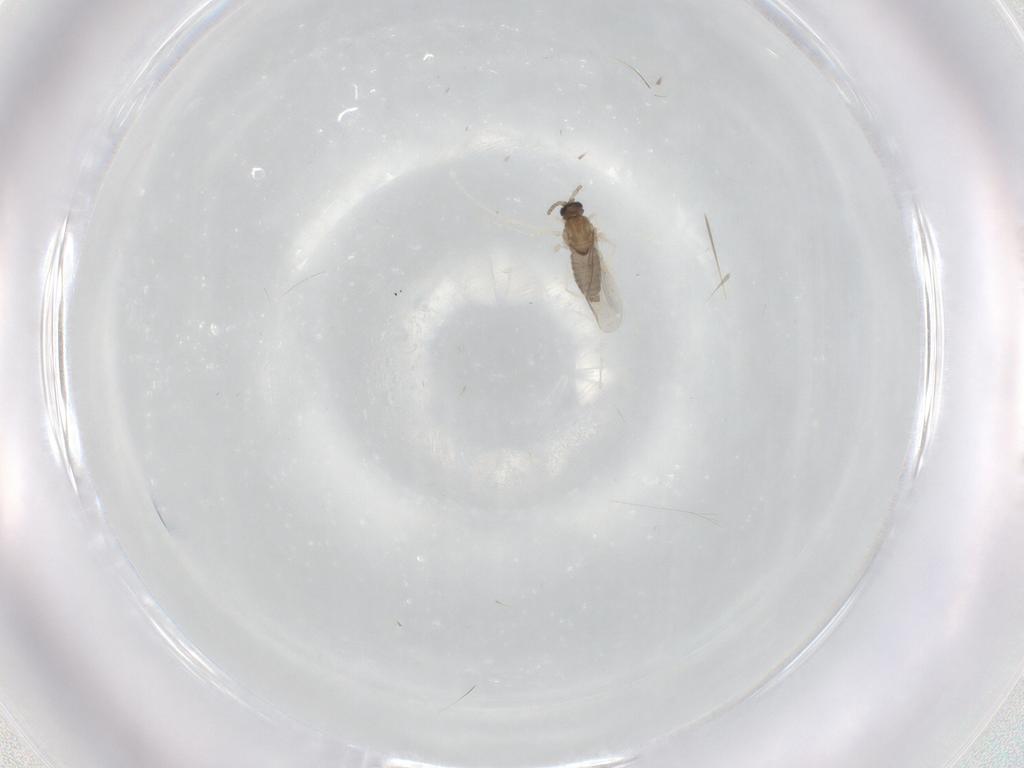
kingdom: Animalia
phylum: Arthropoda
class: Insecta
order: Diptera
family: Cecidomyiidae
